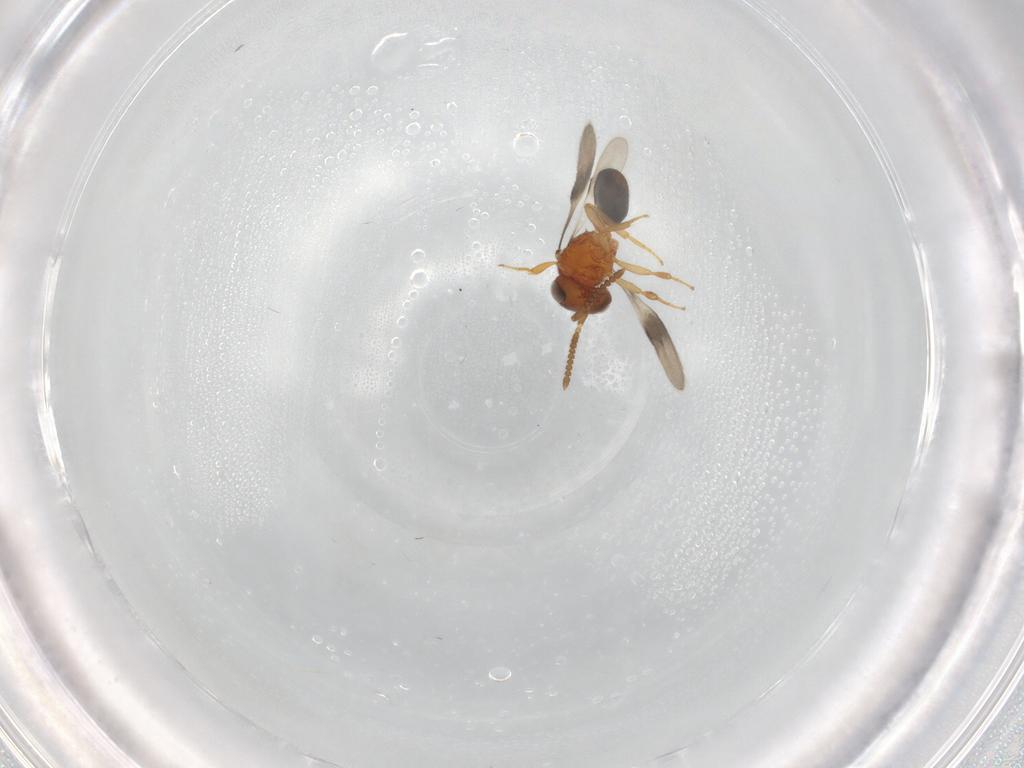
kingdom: Animalia
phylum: Arthropoda
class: Insecta
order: Hymenoptera
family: Scelionidae
